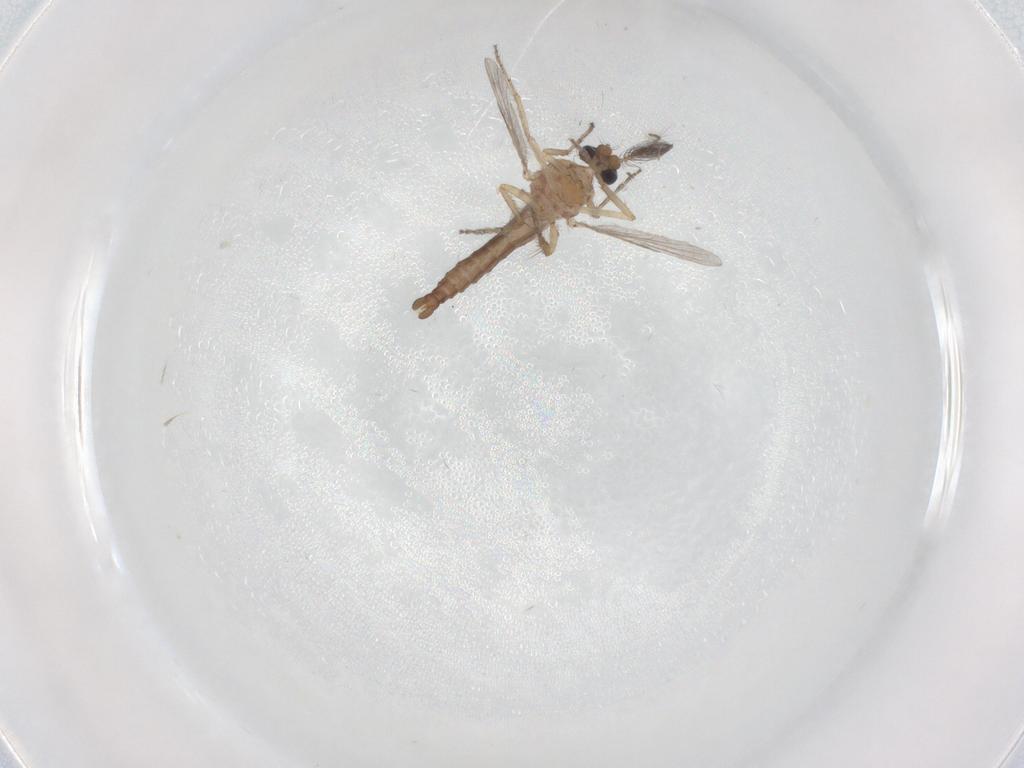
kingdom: Animalia
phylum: Arthropoda
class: Insecta
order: Diptera
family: Ceratopogonidae
